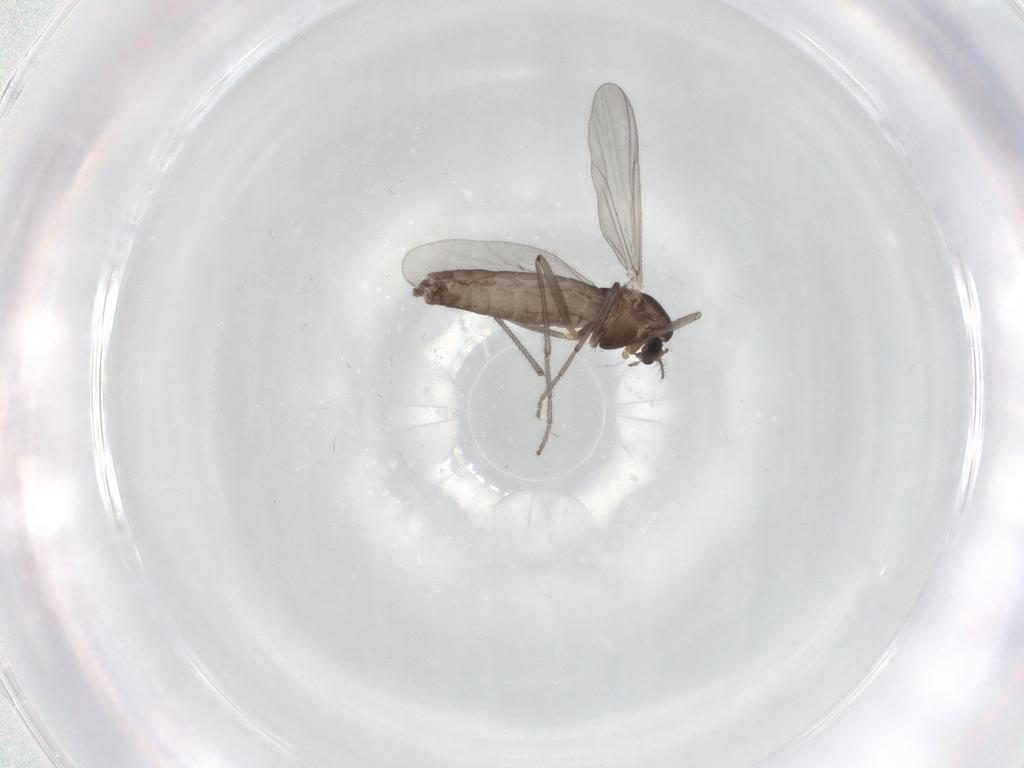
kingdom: Animalia
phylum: Arthropoda
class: Insecta
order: Diptera
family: Chironomidae
